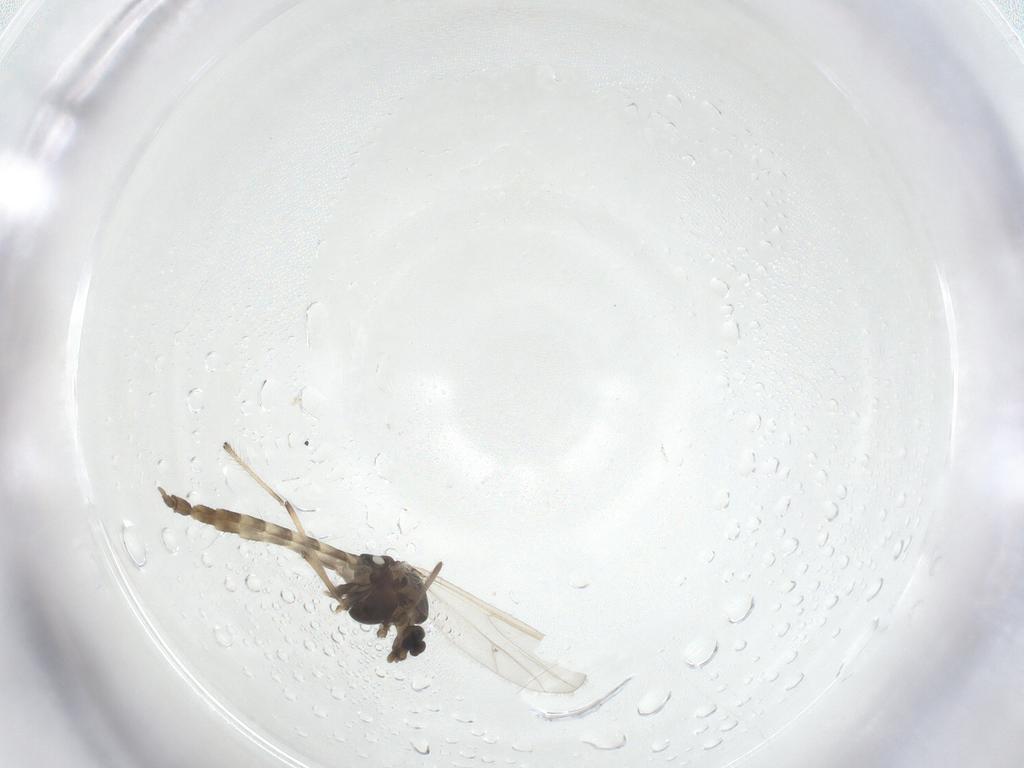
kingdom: Animalia
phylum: Arthropoda
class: Insecta
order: Diptera
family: Chironomidae
